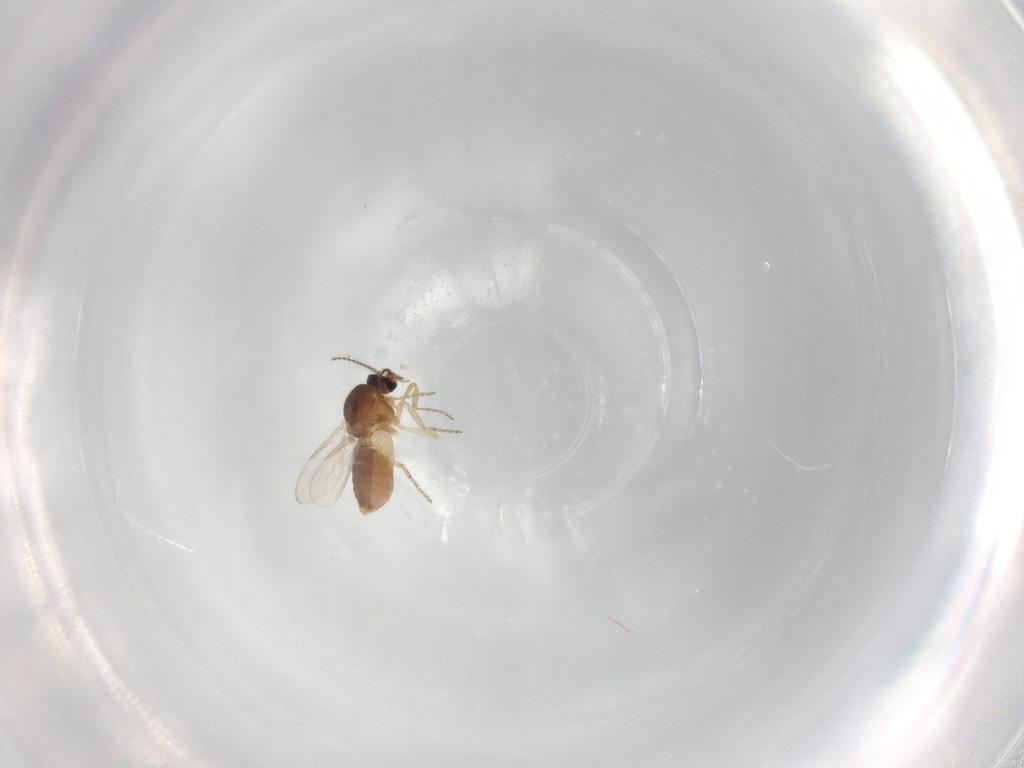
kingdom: Animalia
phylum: Arthropoda
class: Insecta
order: Diptera
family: Ceratopogonidae
